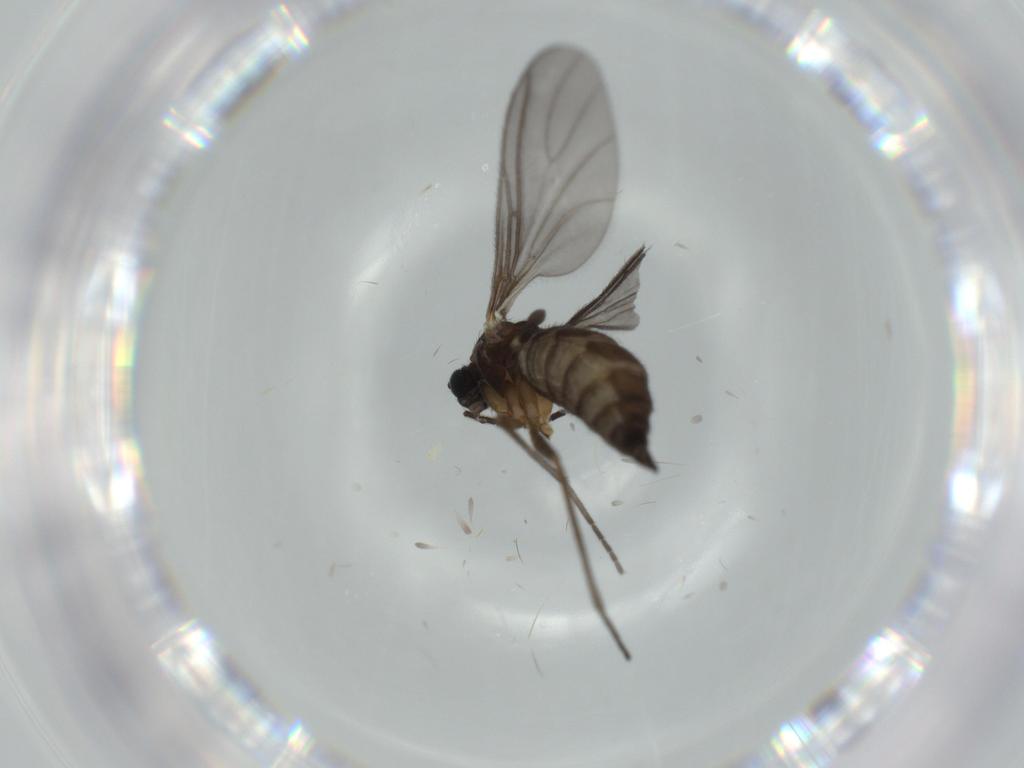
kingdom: Animalia
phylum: Arthropoda
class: Insecta
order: Diptera
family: Sciaridae
